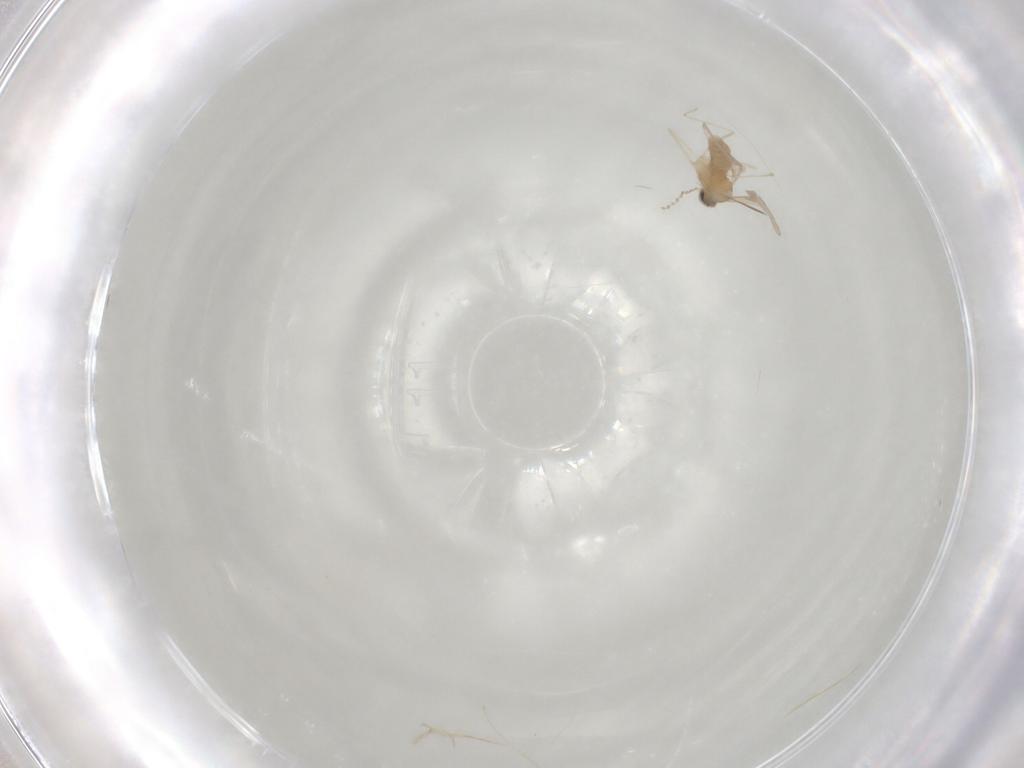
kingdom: Animalia
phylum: Arthropoda
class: Insecta
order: Diptera
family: Cecidomyiidae
